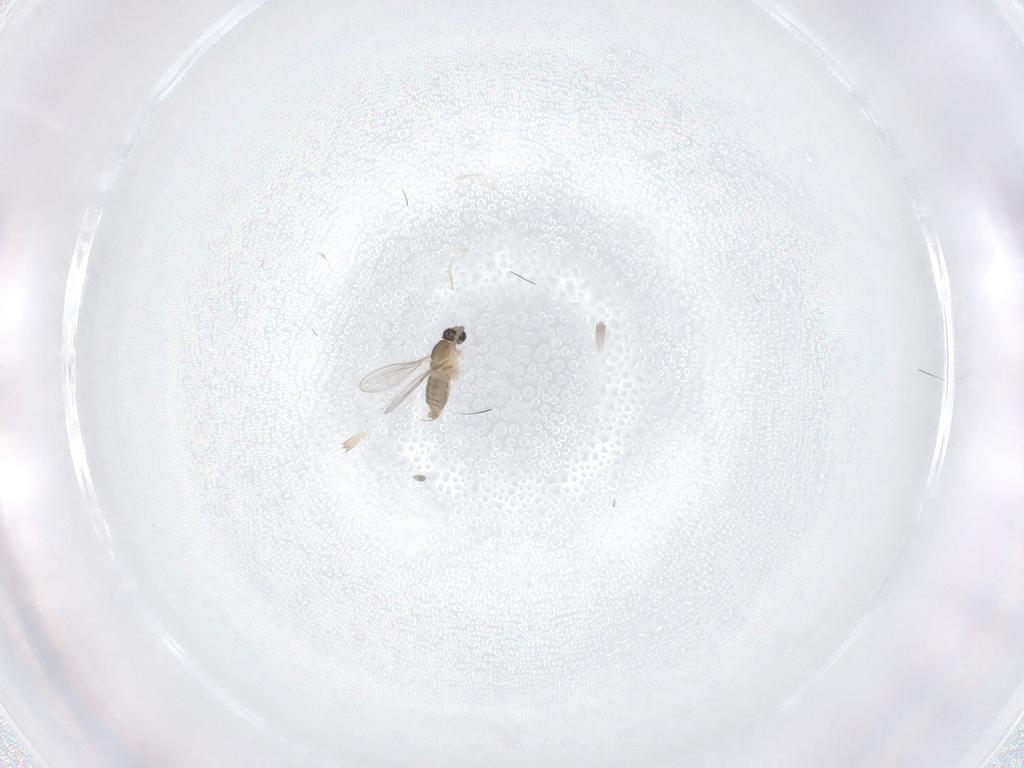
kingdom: Animalia
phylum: Arthropoda
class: Insecta
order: Diptera
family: Cecidomyiidae
